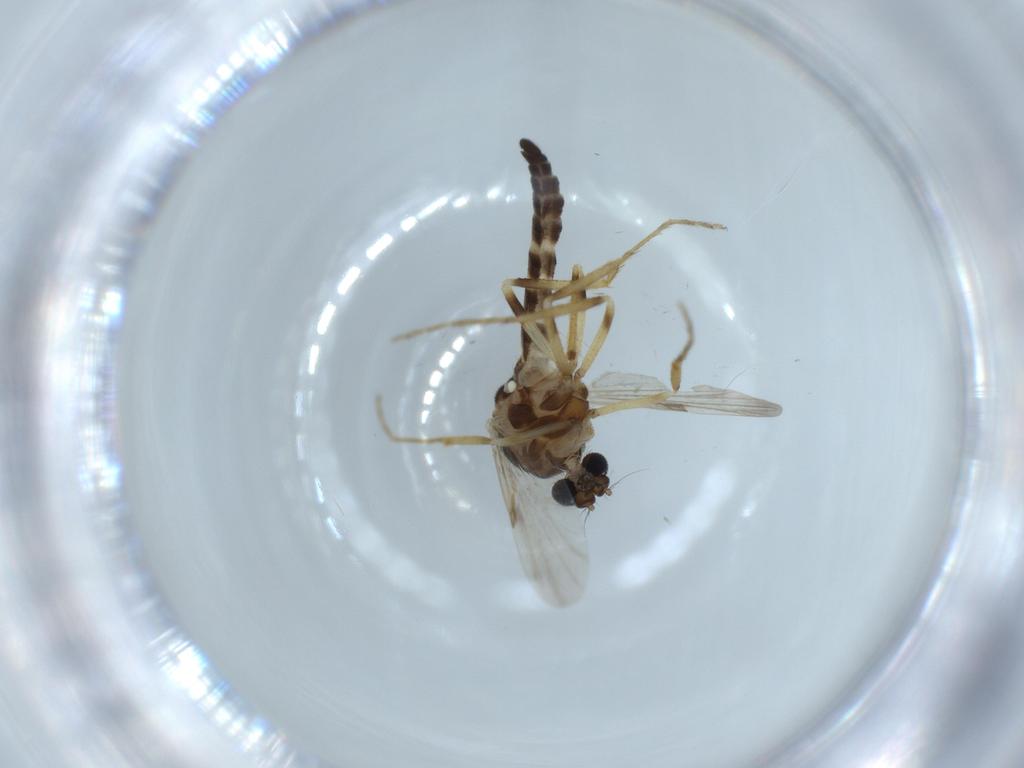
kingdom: Animalia
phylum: Arthropoda
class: Insecta
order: Diptera
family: Ceratopogonidae
